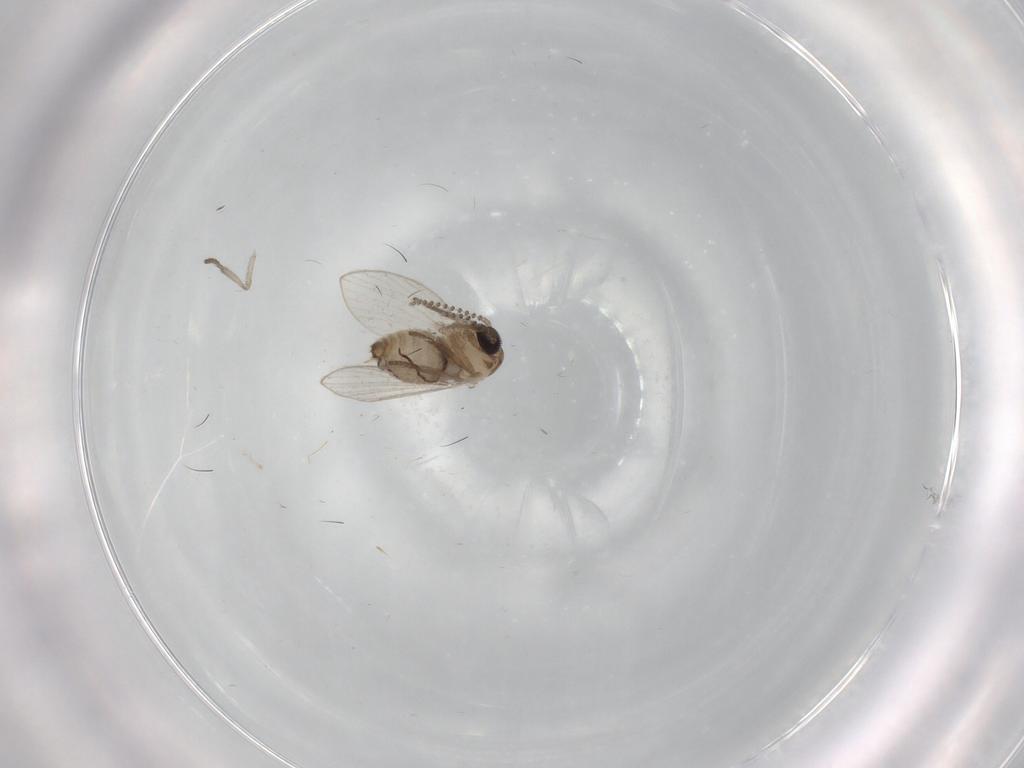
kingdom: Animalia
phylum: Arthropoda
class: Insecta
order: Diptera
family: Psychodidae
